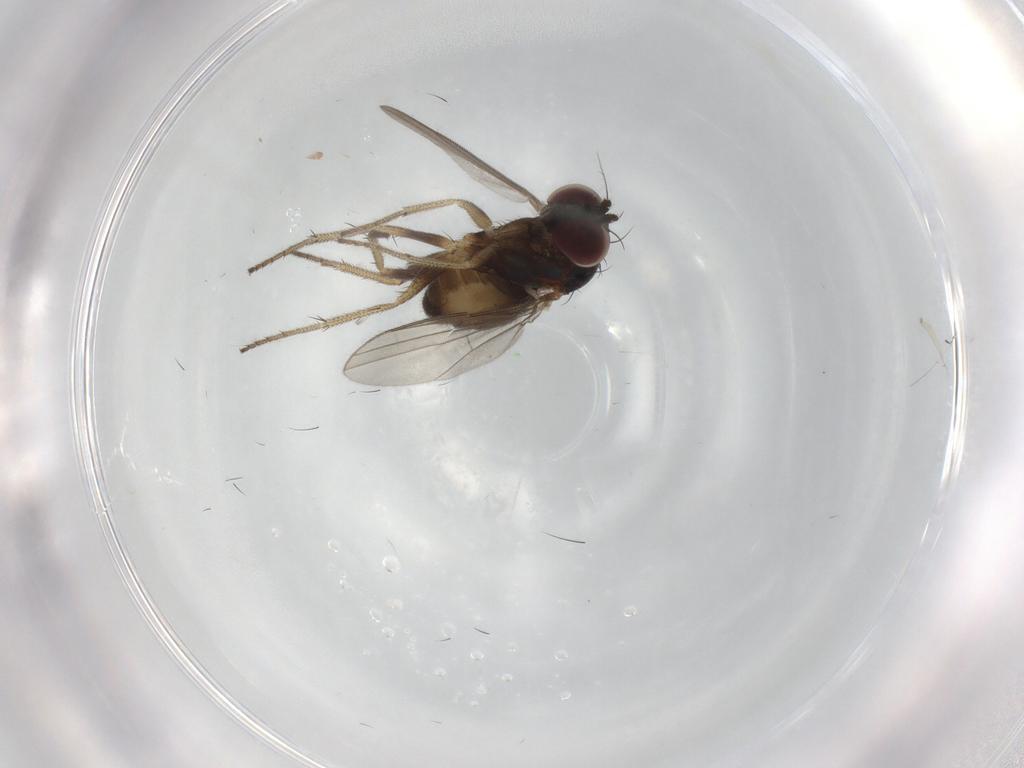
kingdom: Animalia
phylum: Arthropoda
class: Insecta
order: Diptera
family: Dolichopodidae
